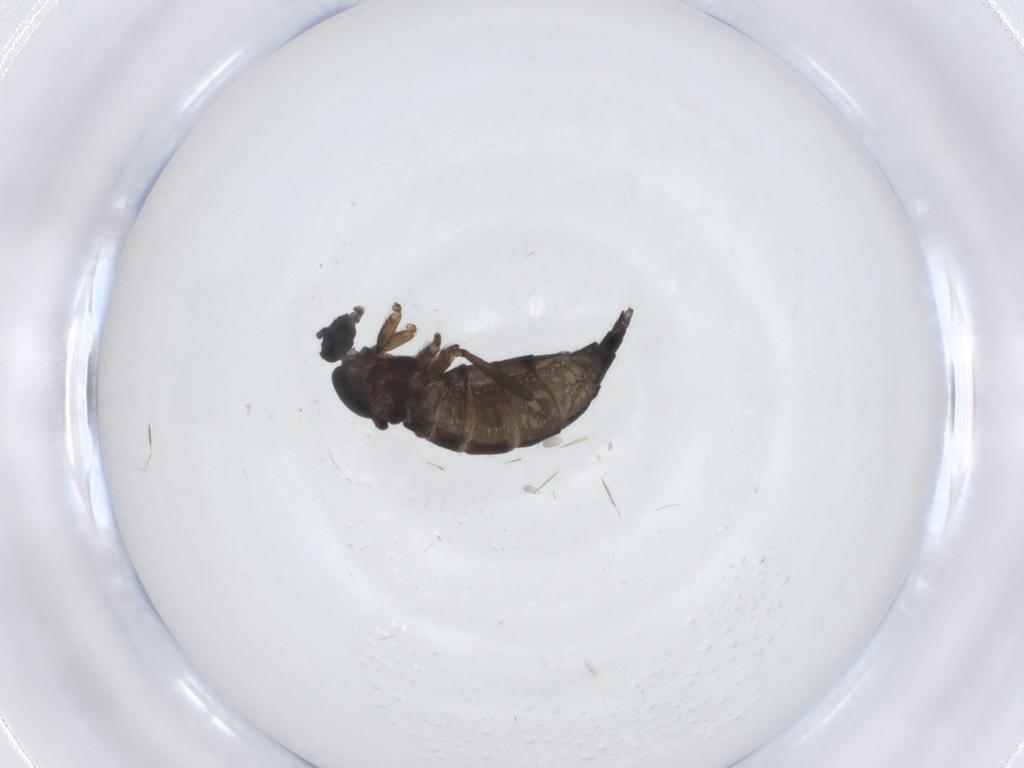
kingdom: Animalia
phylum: Arthropoda
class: Insecta
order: Diptera
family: Sciaridae
